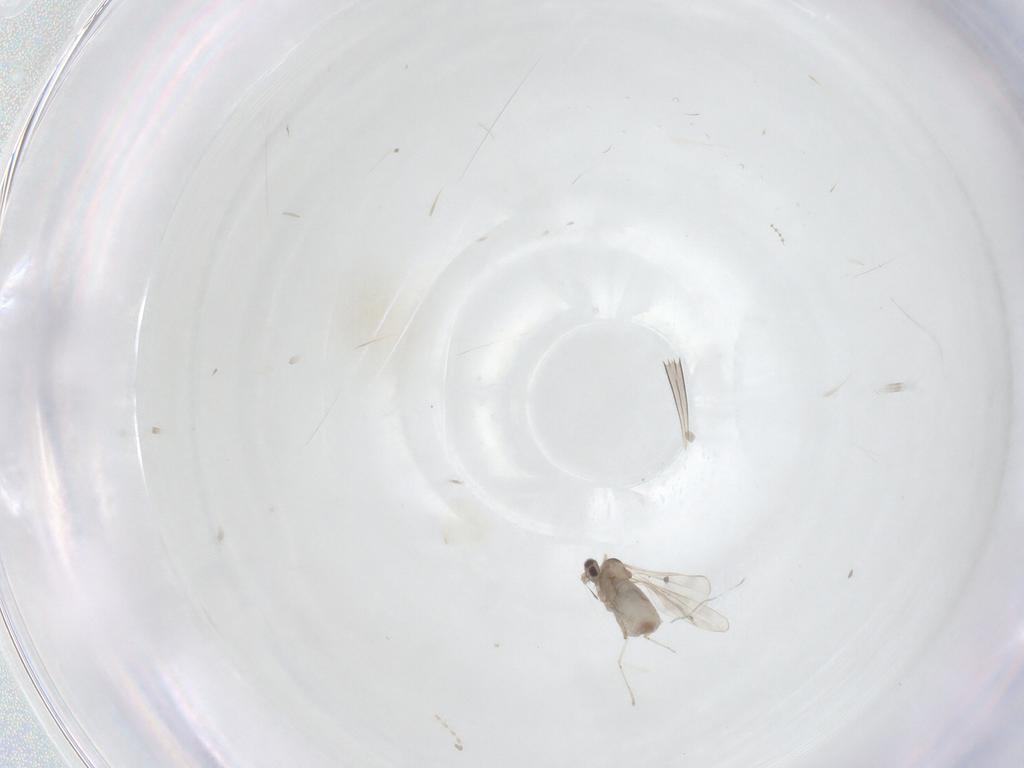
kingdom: Animalia
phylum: Arthropoda
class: Insecta
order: Diptera
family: Cecidomyiidae
